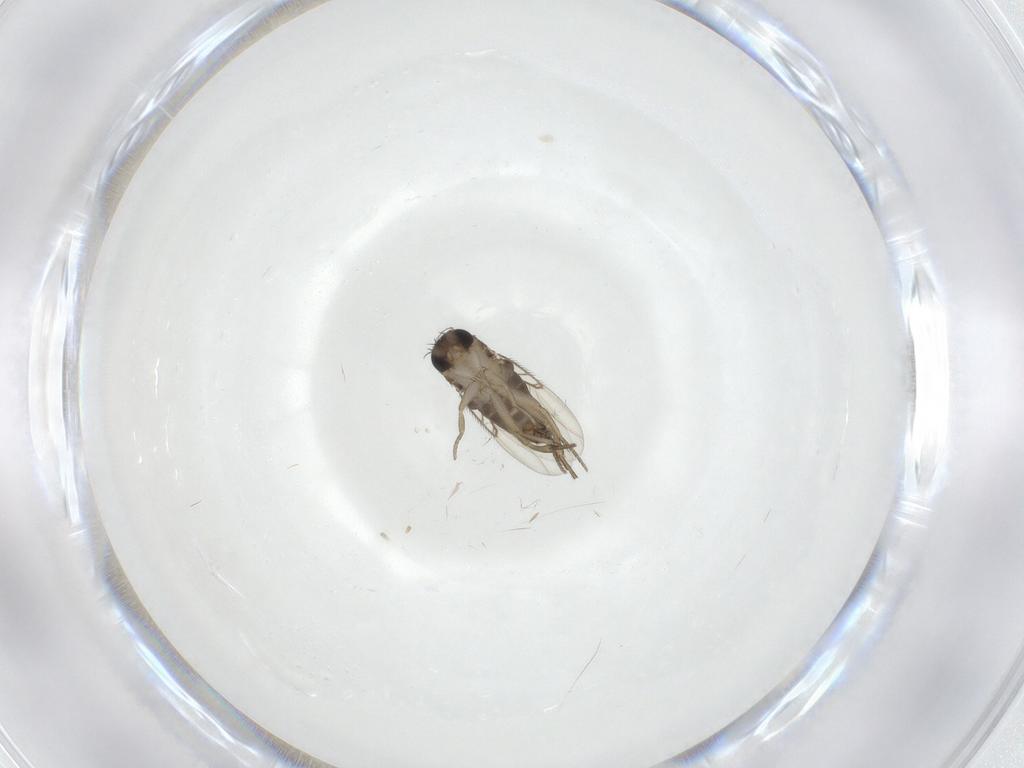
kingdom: Animalia
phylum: Arthropoda
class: Insecta
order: Diptera
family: Phoridae
